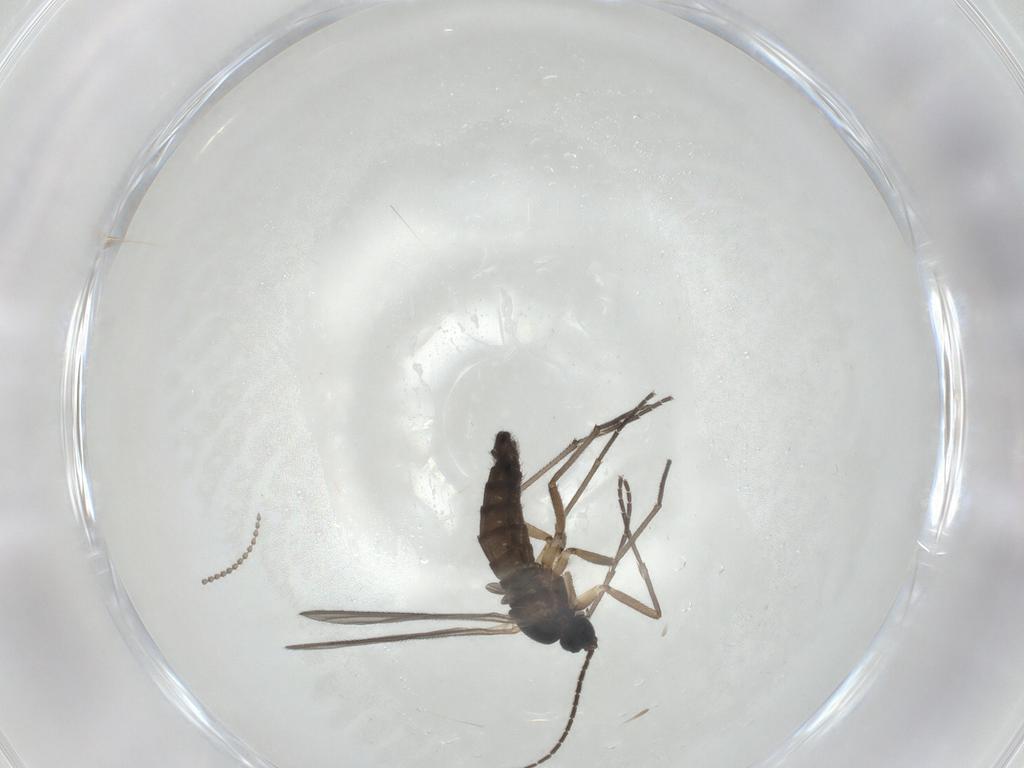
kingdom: Animalia
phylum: Arthropoda
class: Insecta
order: Diptera
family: Sciaridae
